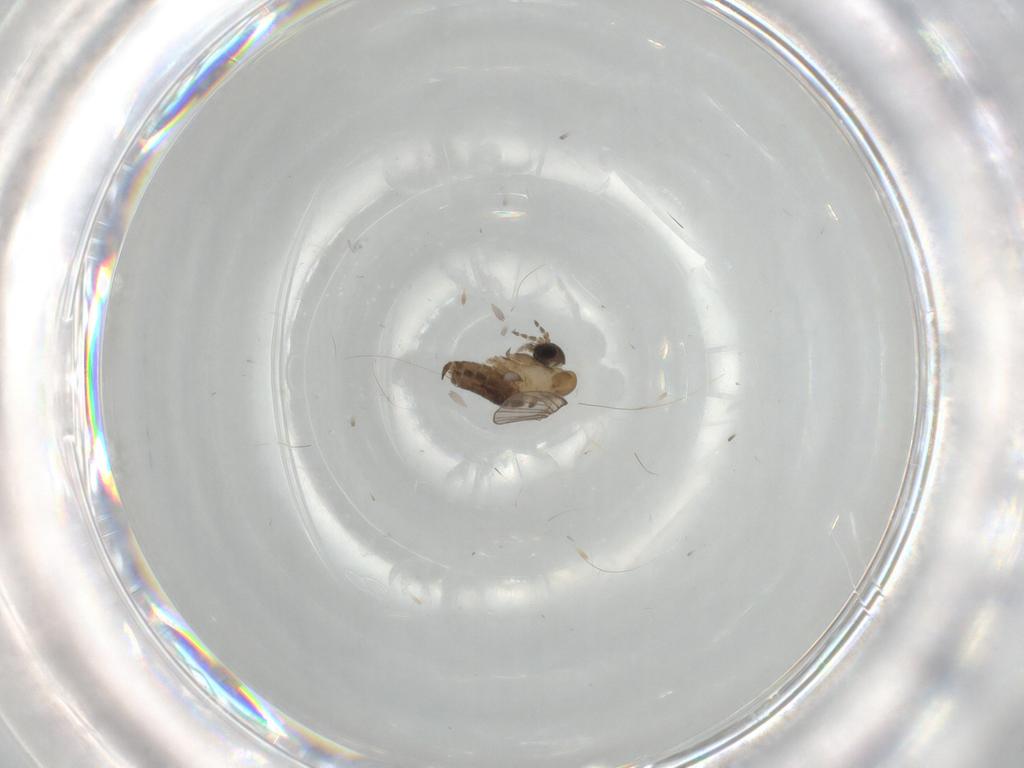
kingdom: Animalia
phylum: Arthropoda
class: Insecta
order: Diptera
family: Tabanidae
